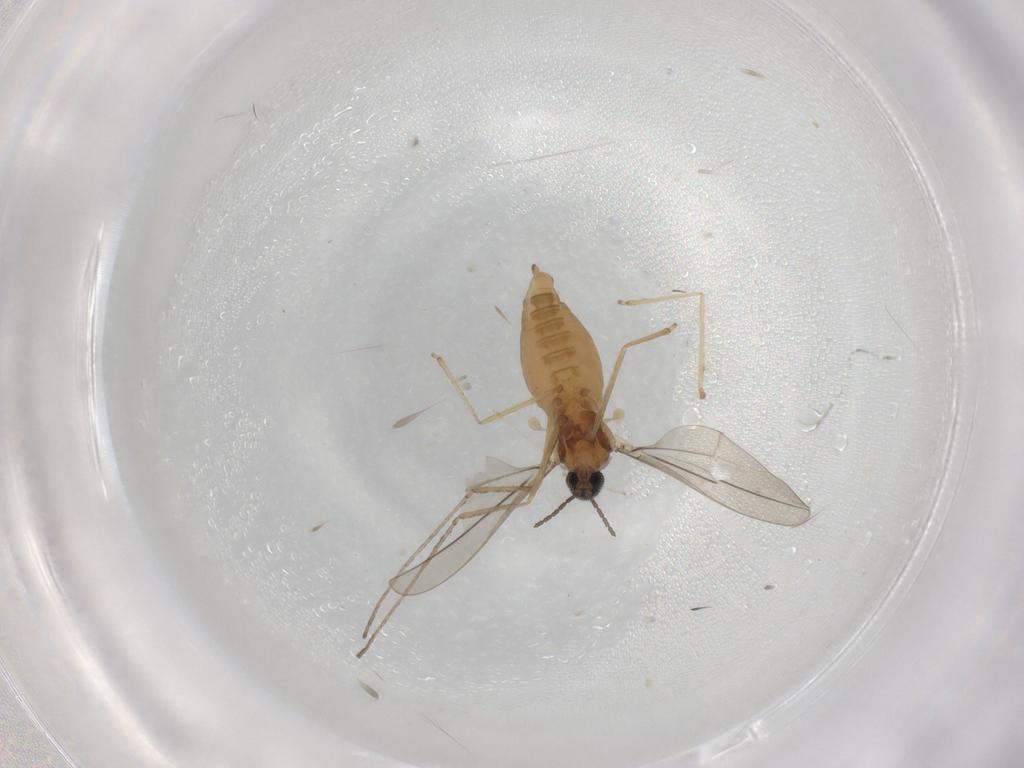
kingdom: Animalia
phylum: Arthropoda
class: Insecta
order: Diptera
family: Cecidomyiidae
